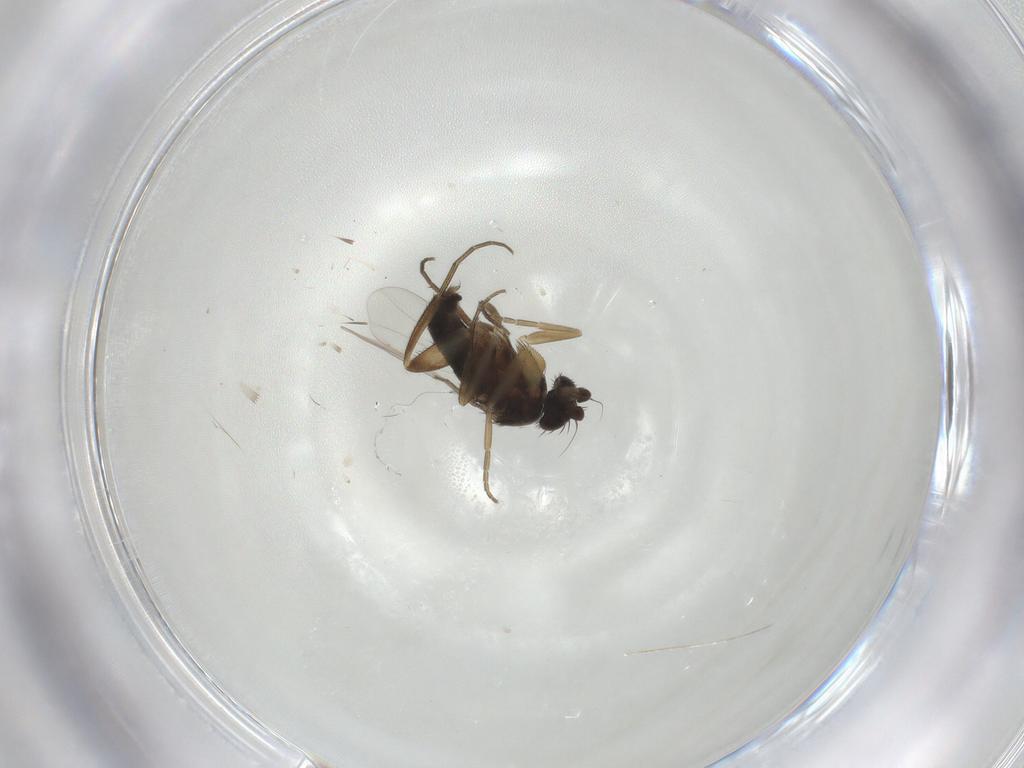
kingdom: Animalia
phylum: Arthropoda
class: Insecta
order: Diptera
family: Phoridae
